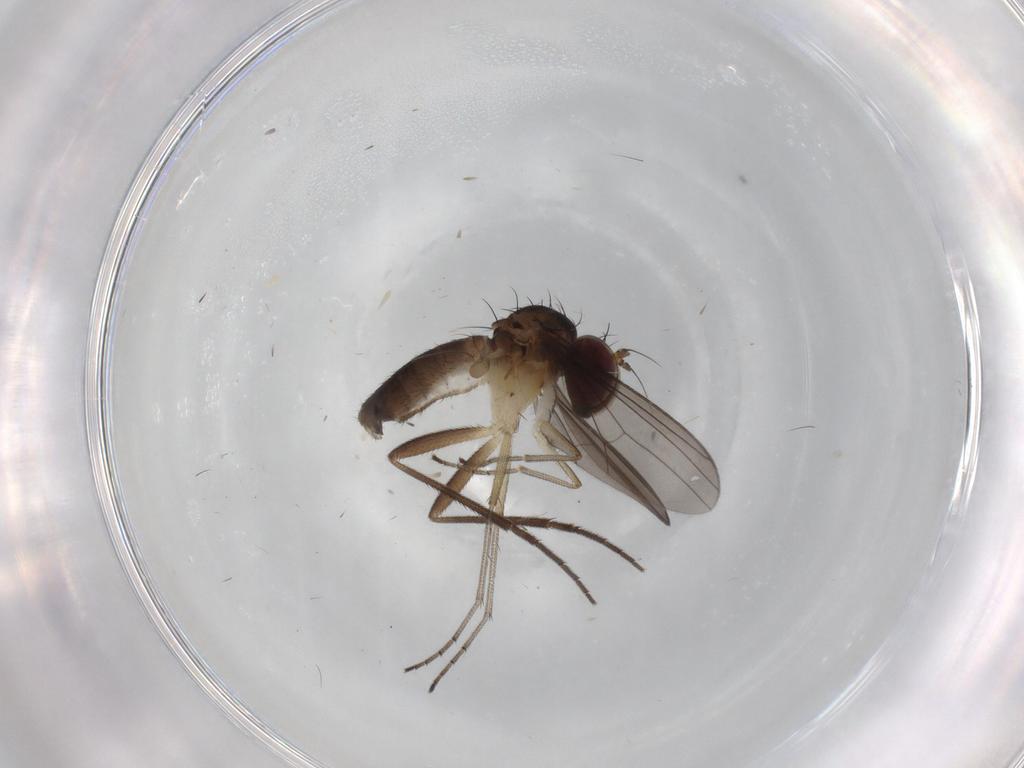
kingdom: Animalia
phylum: Arthropoda
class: Insecta
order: Diptera
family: Dolichopodidae
